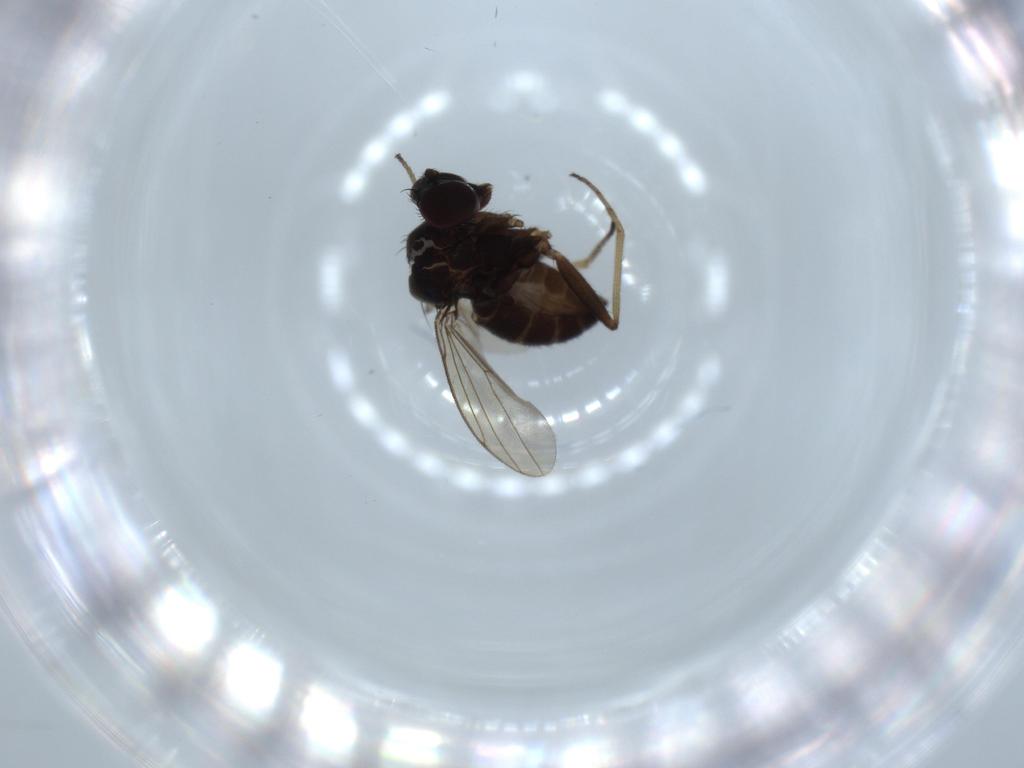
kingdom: Animalia
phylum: Arthropoda
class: Insecta
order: Diptera
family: Dolichopodidae
